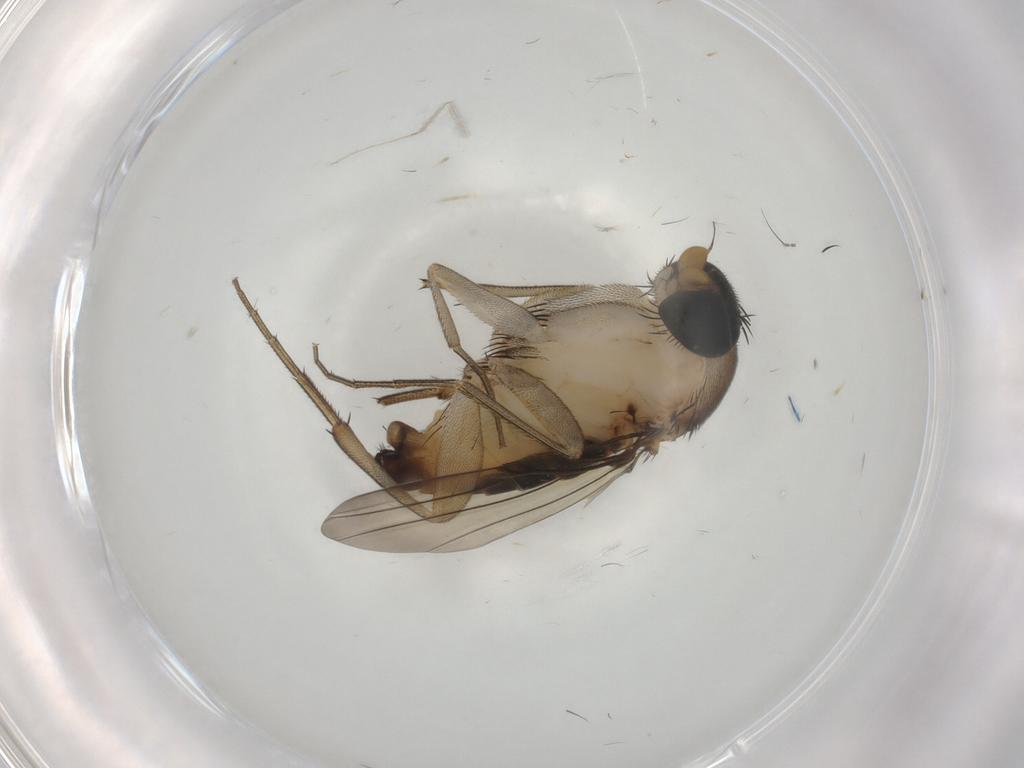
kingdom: Animalia
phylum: Arthropoda
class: Insecta
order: Diptera
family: Phoridae
